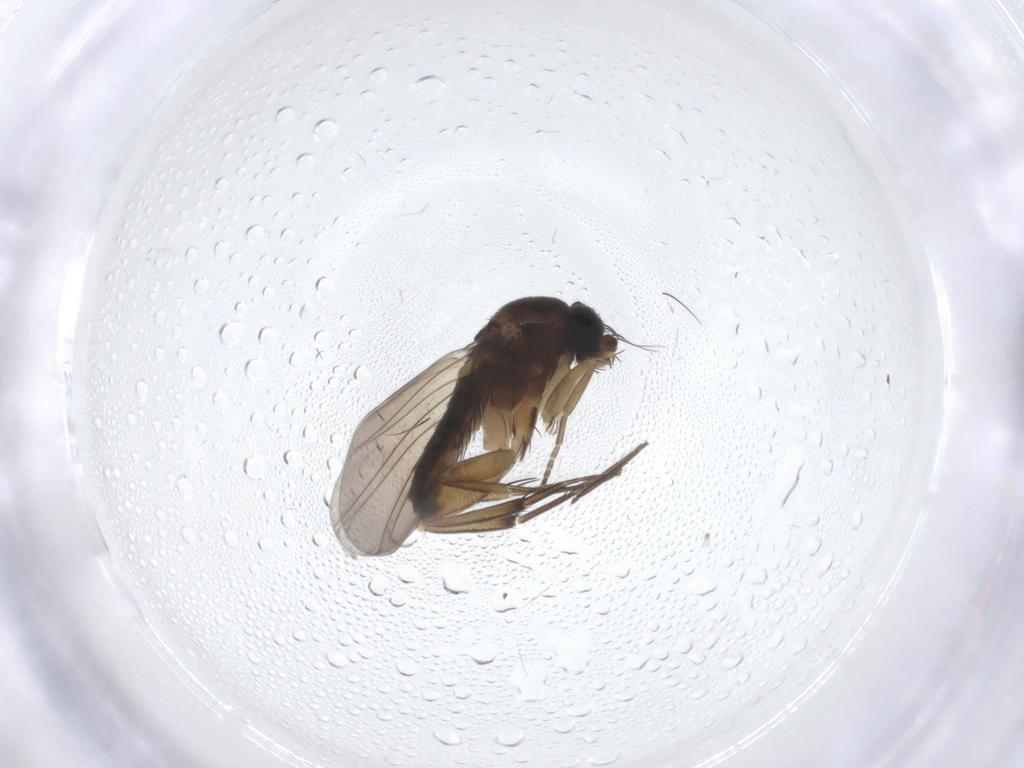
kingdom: Animalia
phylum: Arthropoda
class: Insecta
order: Diptera
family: Phoridae
